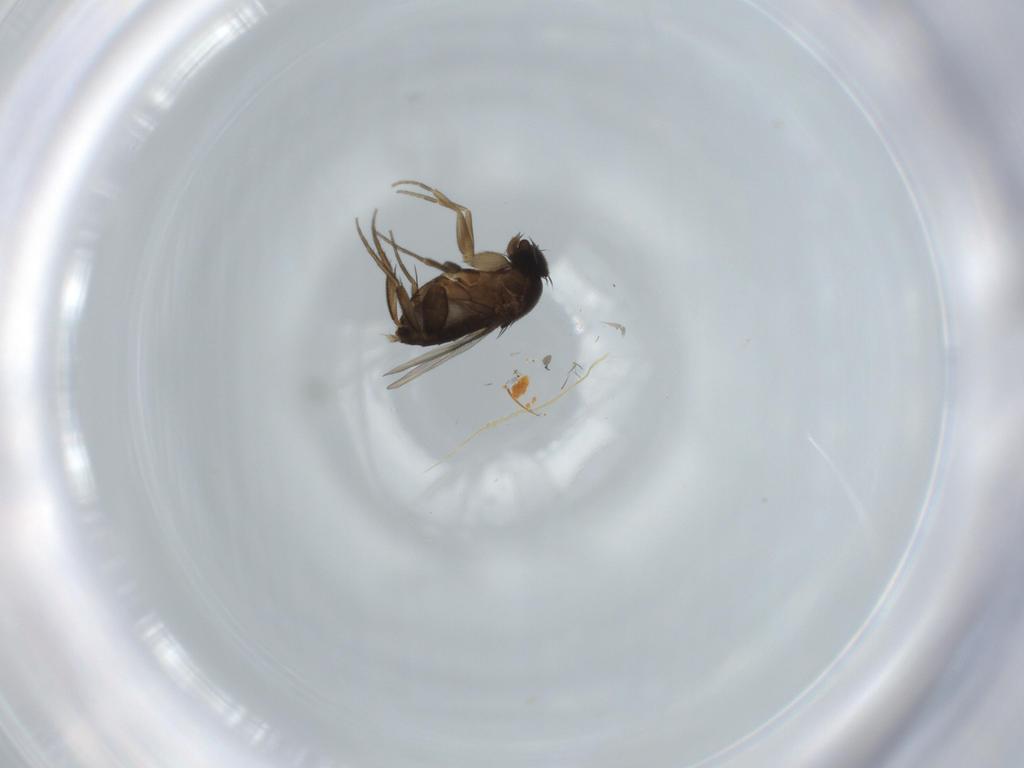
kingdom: Animalia
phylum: Arthropoda
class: Insecta
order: Diptera
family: Phoridae
